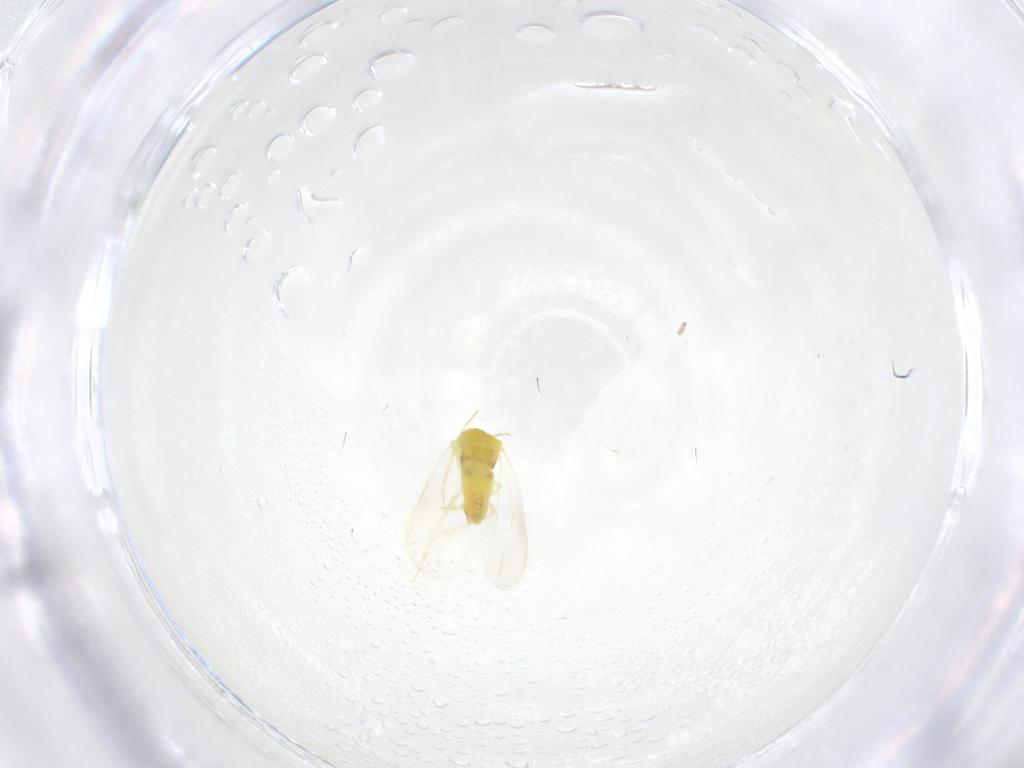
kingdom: Animalia
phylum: Arthropoda
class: Insecta
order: Hemiptera
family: Aleyrodidae
